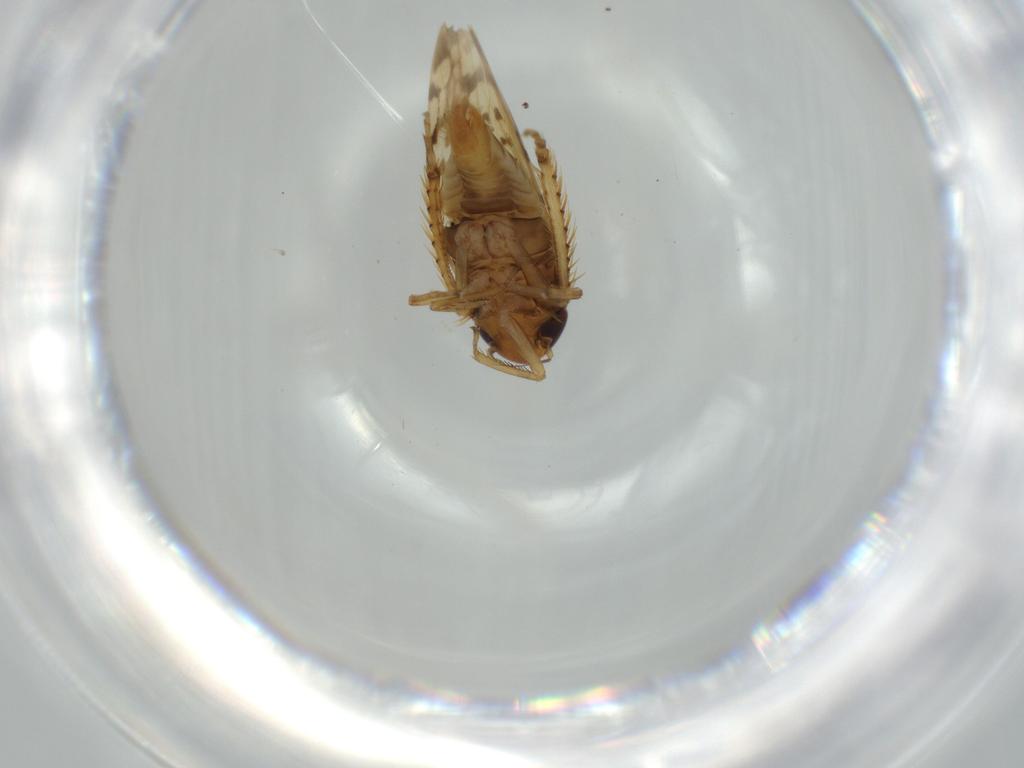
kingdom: Animalia
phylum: Arthropoda
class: Insecta
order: Hemiptera
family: Cicadellidae
